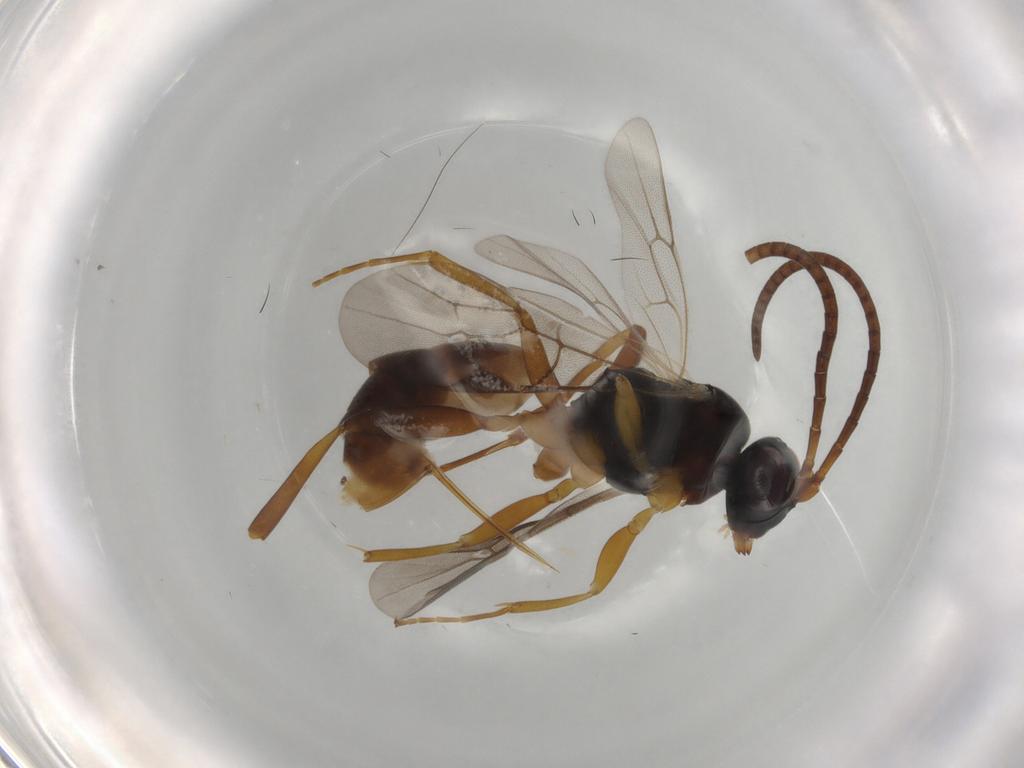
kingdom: Animalia
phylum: Arthropoda
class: Insecta
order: Hymenoptera
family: Ichneumonidae
